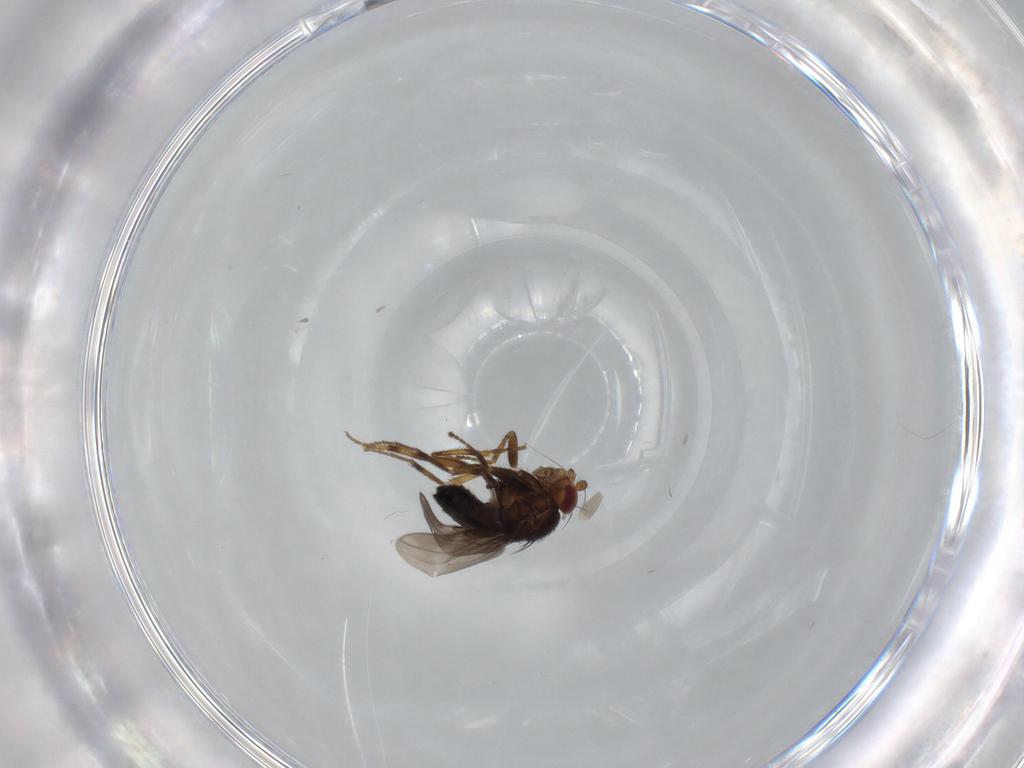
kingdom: Animalia
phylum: Arthropoda
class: Insecta
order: Diptera
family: Sphaeroceridae
